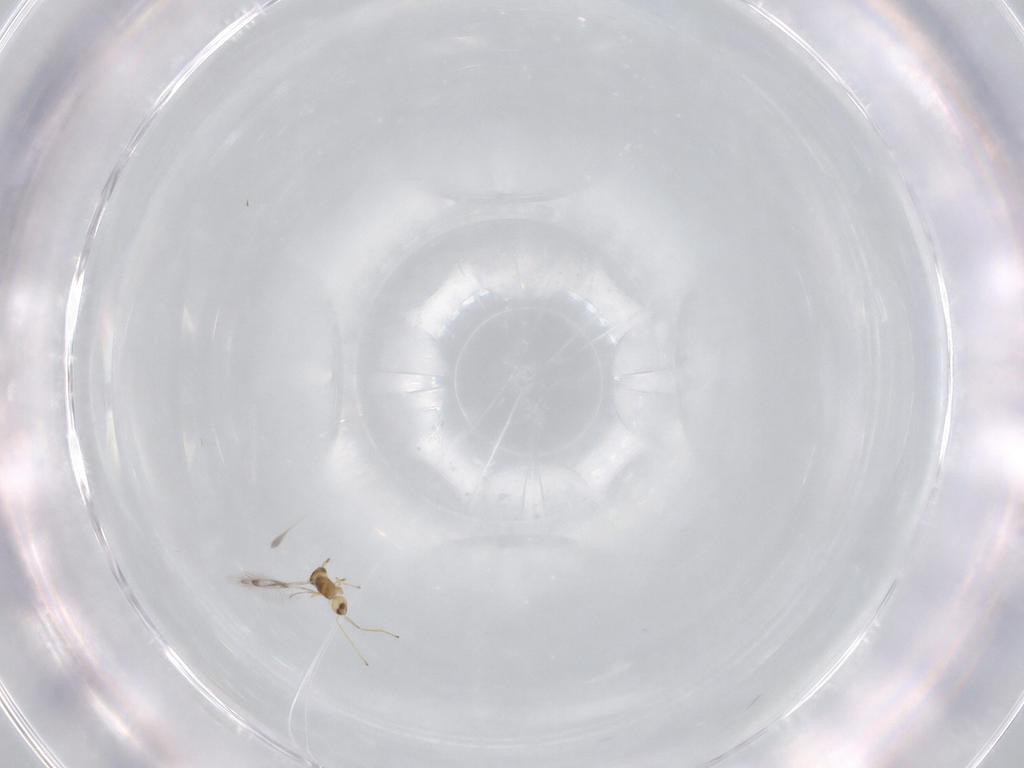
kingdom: Animalia
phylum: Arthropoda
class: Insecta
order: Hymenoptera
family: Mymaridae
